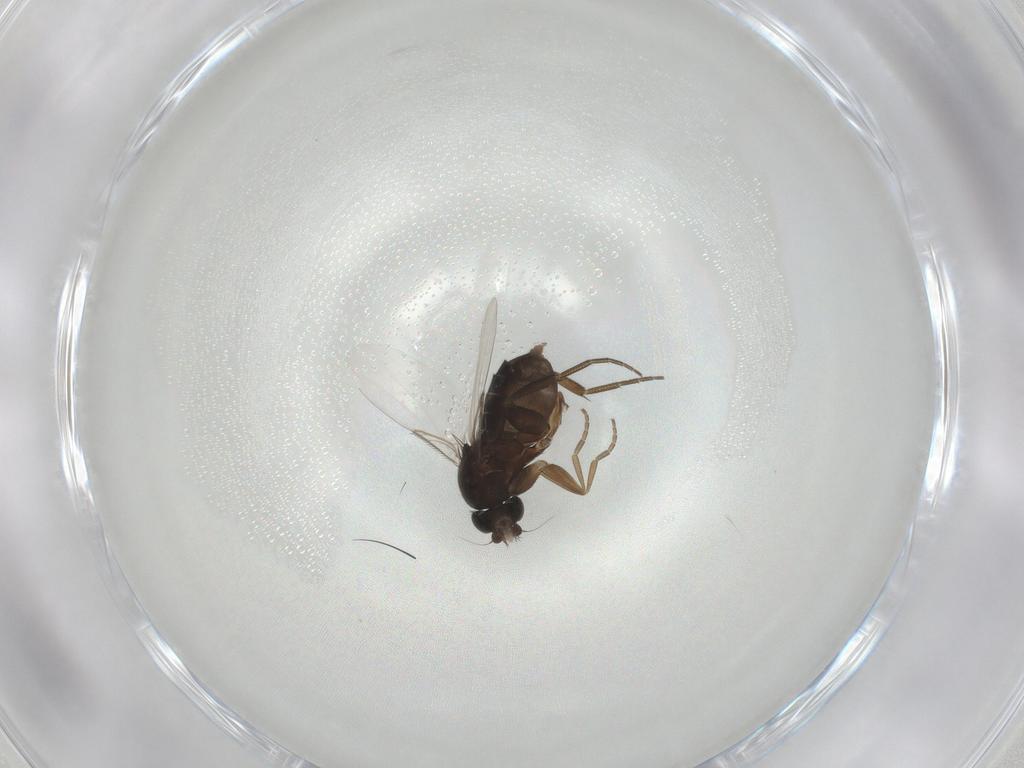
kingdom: Animalia
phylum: Arthropoda
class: Insecta
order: Diptera
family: Phoridae
